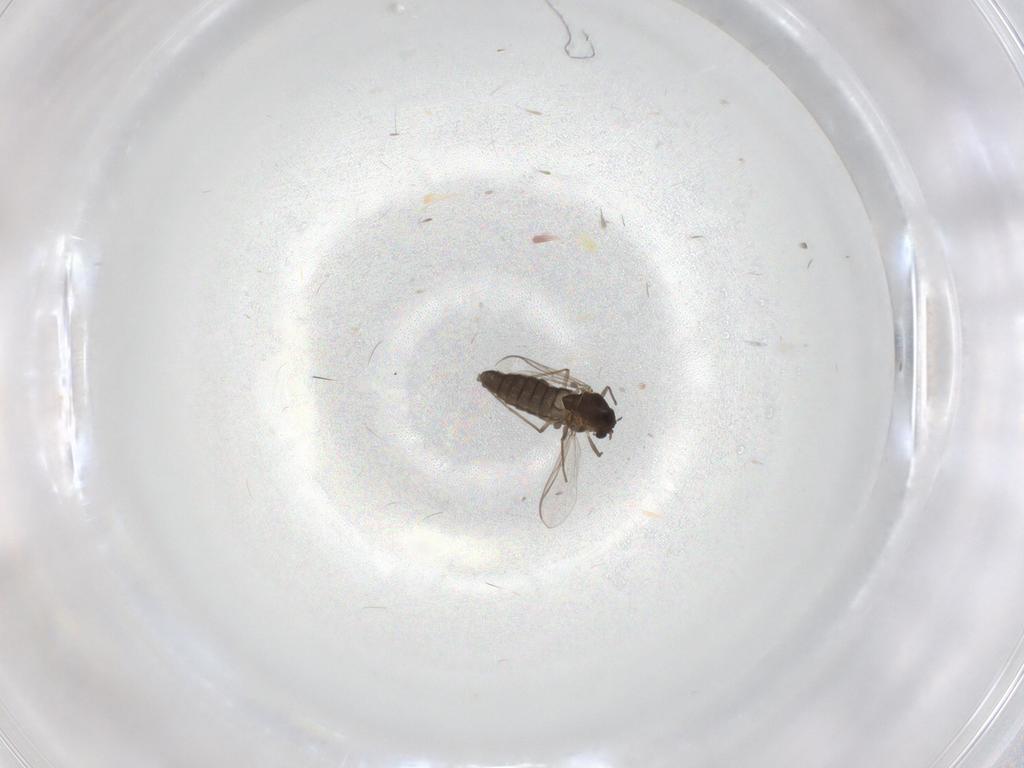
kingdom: Animalia
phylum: Arthropoda
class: Insecta
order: Diptera
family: Chironomidae
